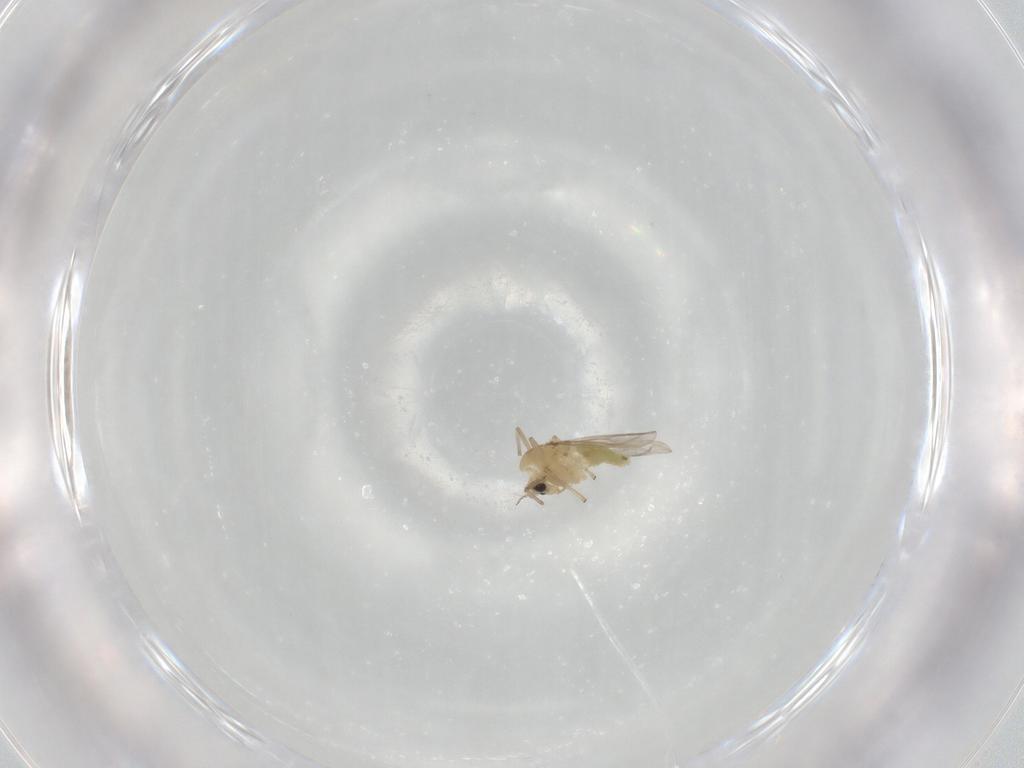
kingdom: Animalia
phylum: Arthropoda
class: Insecta
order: Diptera
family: Chironomidae
